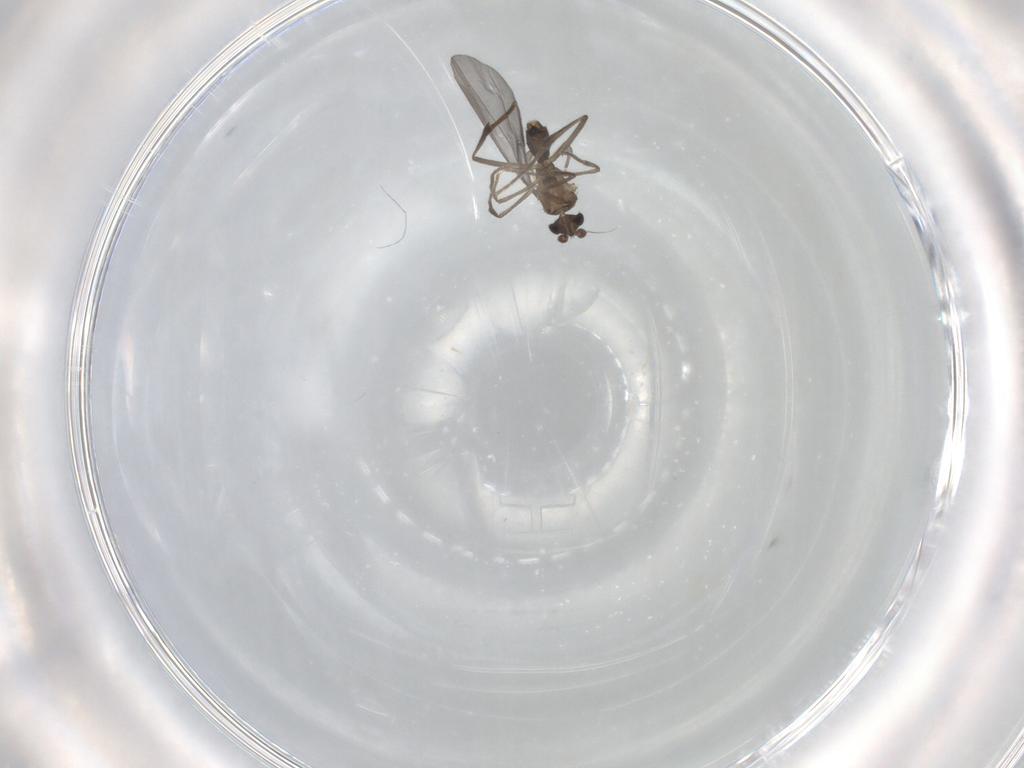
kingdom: Animalia
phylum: Arthropoda
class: Insecta
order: Diptera
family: Phoridae
